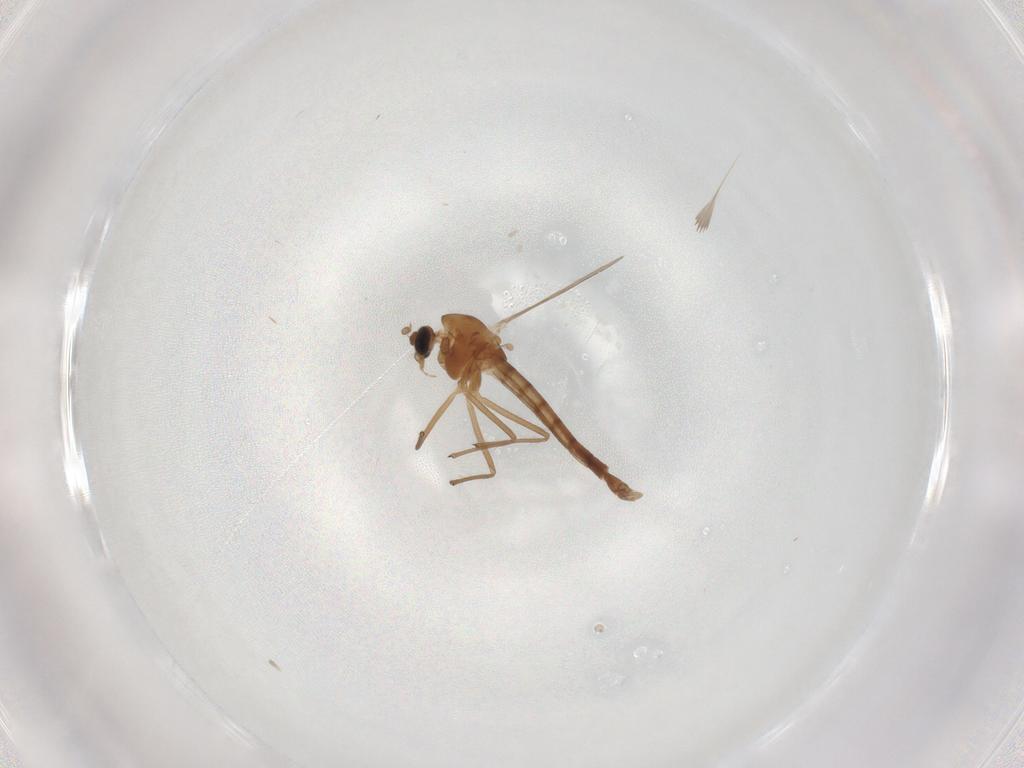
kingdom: Animalia
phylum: Arthropoda
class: Insecta
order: Diptera
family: Chironomidae
